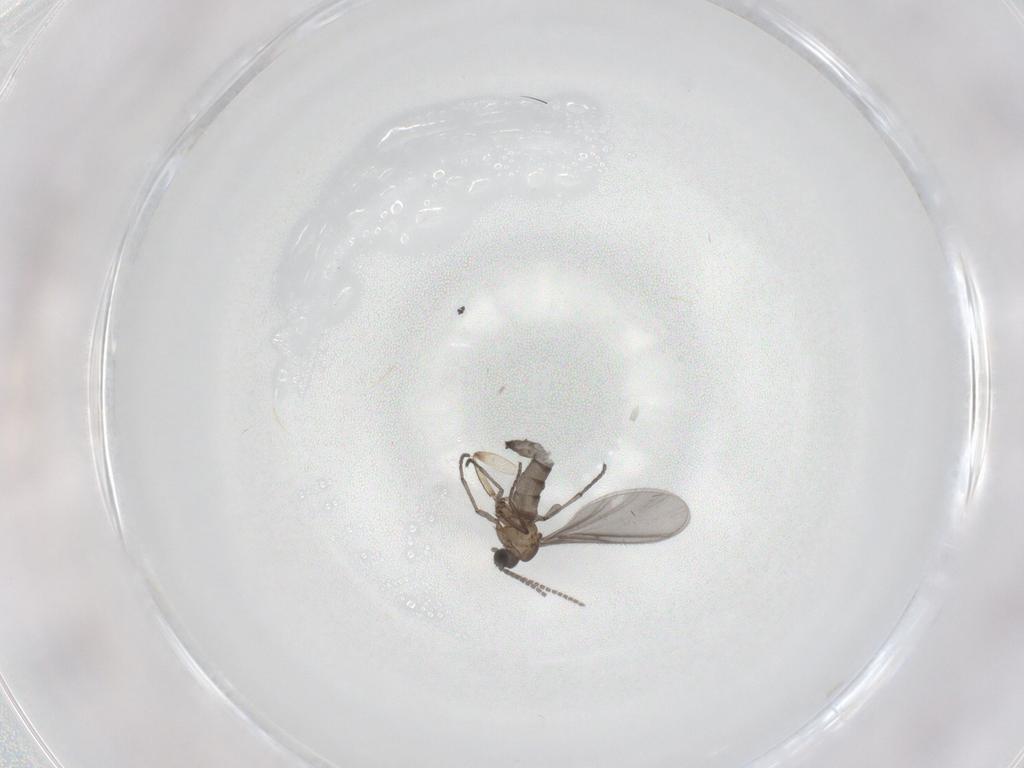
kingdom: Animalia
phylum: Arthropoda
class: Insecta
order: Diptera
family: Sciaridae
